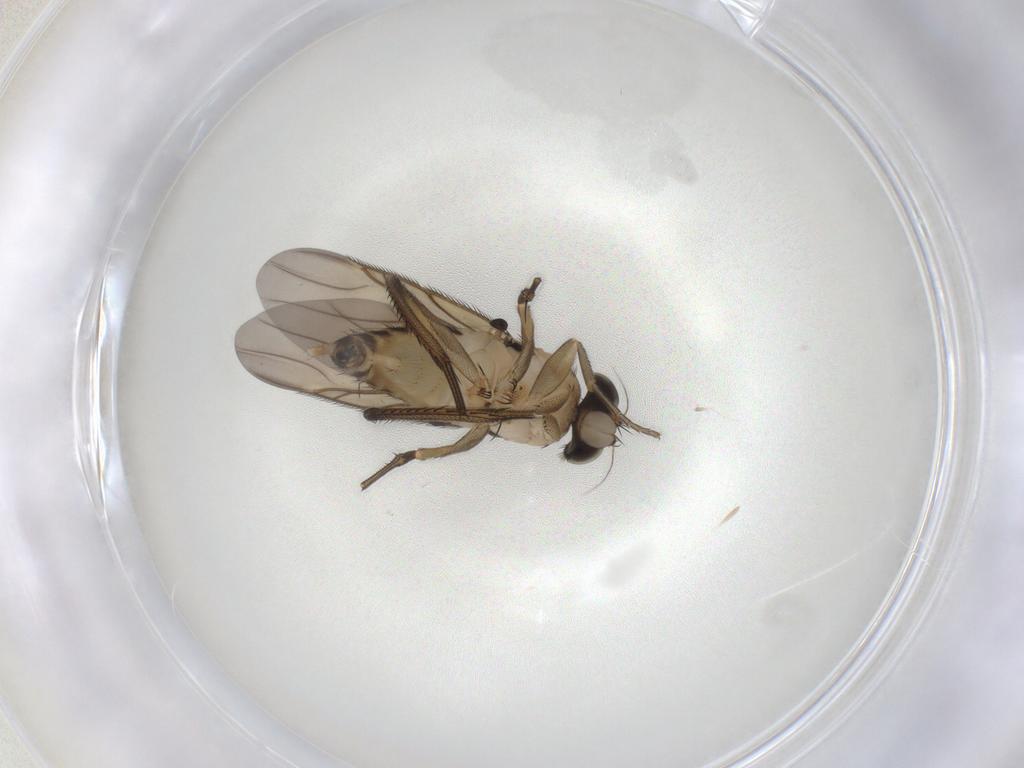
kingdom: Animalia
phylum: Arthropoda
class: Insecta
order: Diptera
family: Phoridae
